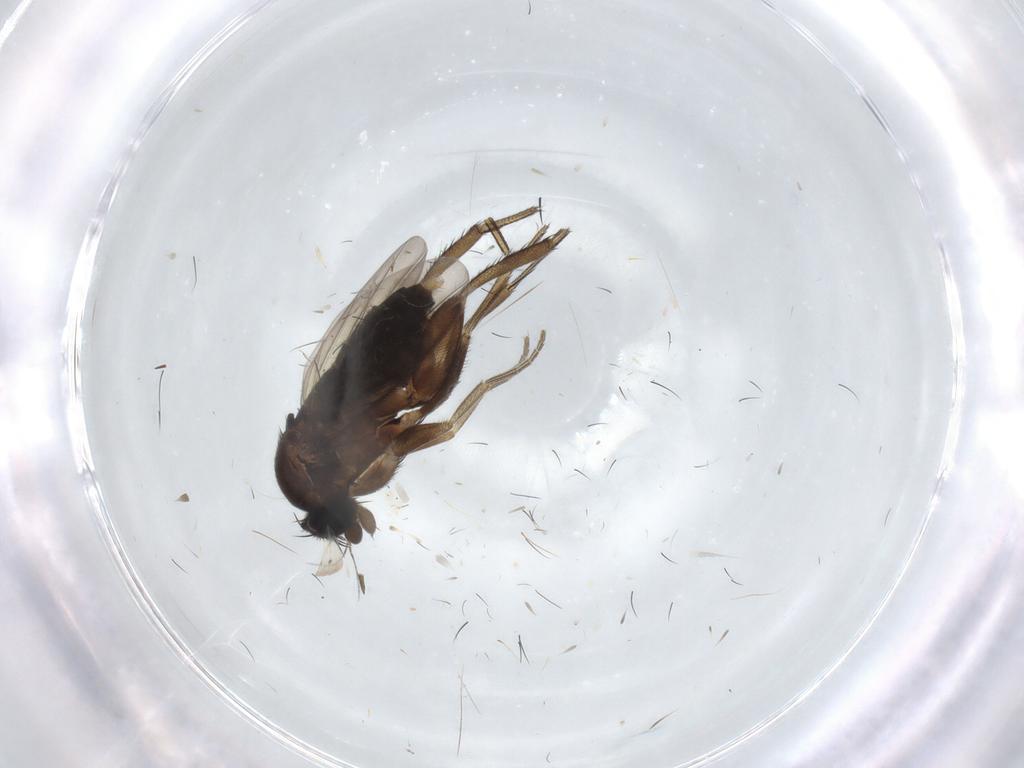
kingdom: Animalia
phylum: Arthropoda
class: Insecta
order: Diptera
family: Phoridae
